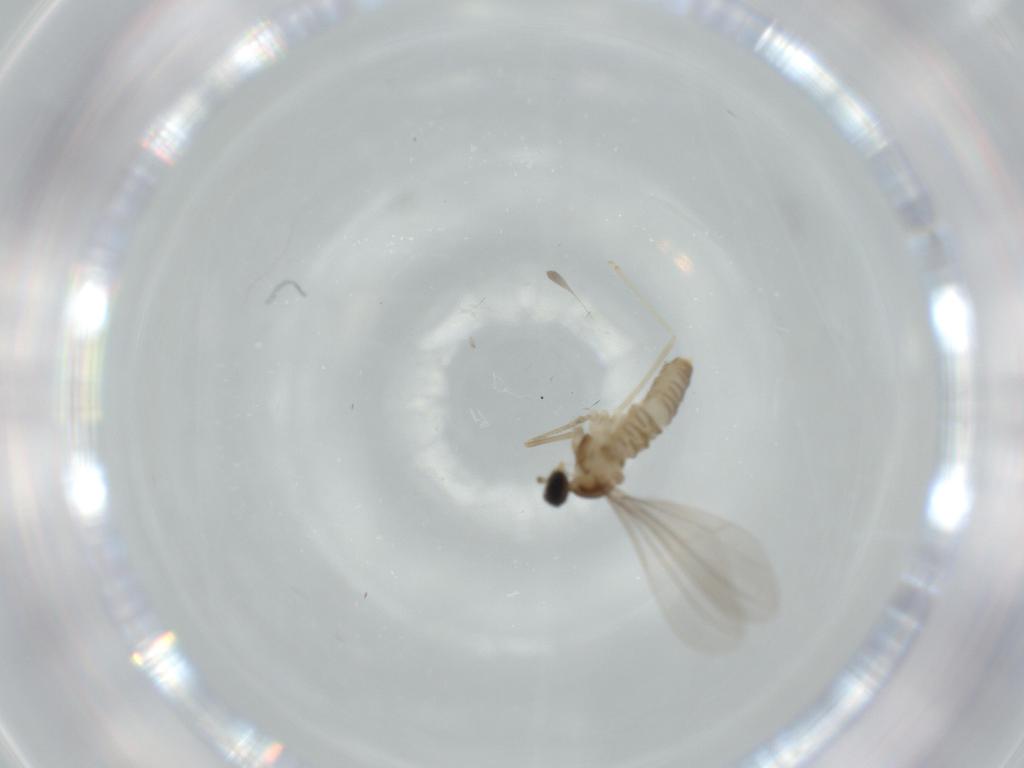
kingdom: Animalia
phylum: Arthropoda
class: Insecta
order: Diptera
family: Cecidomyiidae
